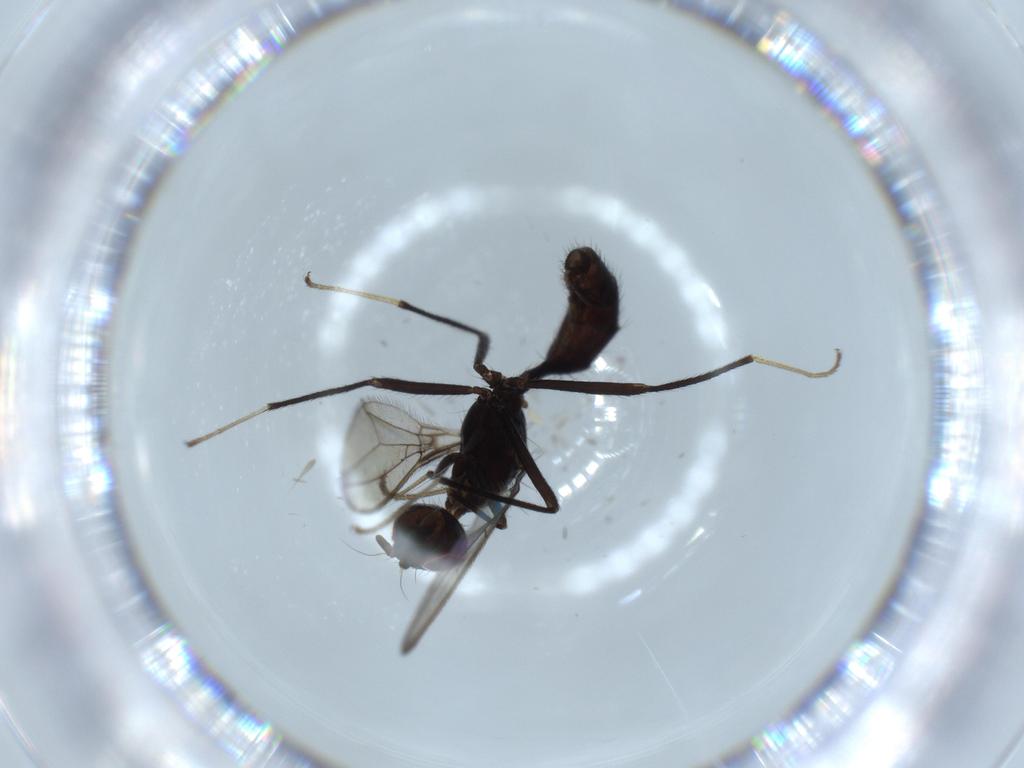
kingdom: Animalia
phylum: Arthropoda
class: Insecta
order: Diptera
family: Richardiidae
